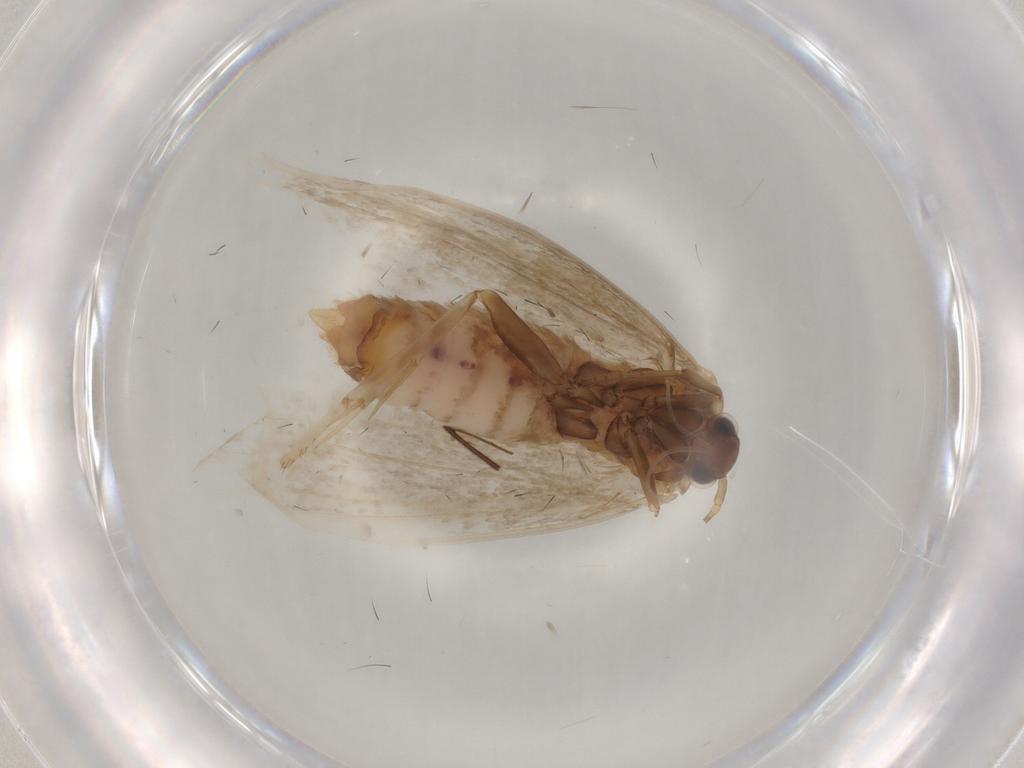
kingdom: Animalia
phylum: Arthropoda
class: Insecta
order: Lepidoptera
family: Yponomeutidae
